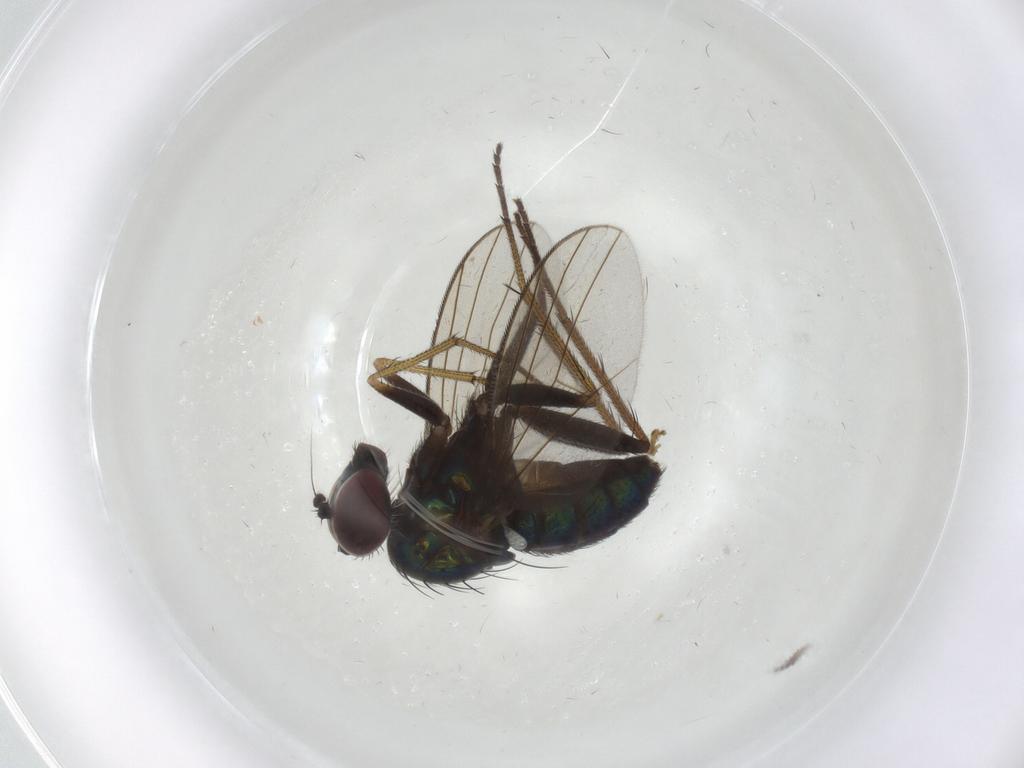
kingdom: Animalia
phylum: Arthropoda
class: Insecta
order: Diptera
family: Dolichopodidae
